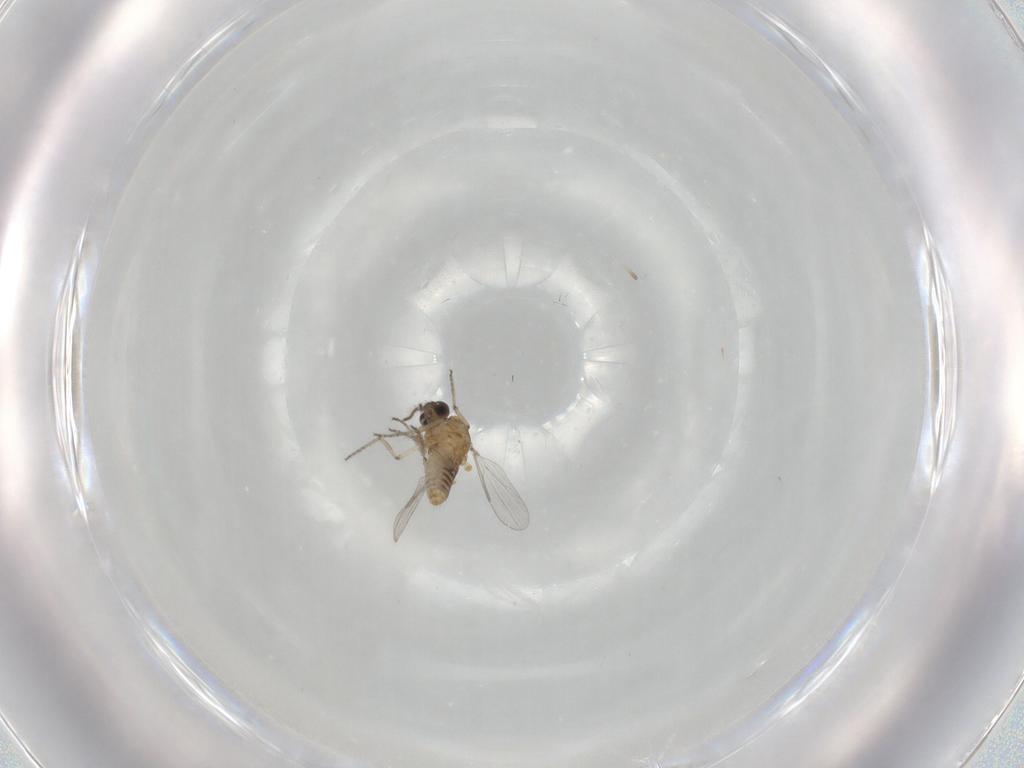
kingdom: Animalia
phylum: Arthropoda
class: Insecta
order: Diptera
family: Ceratopogonidae
